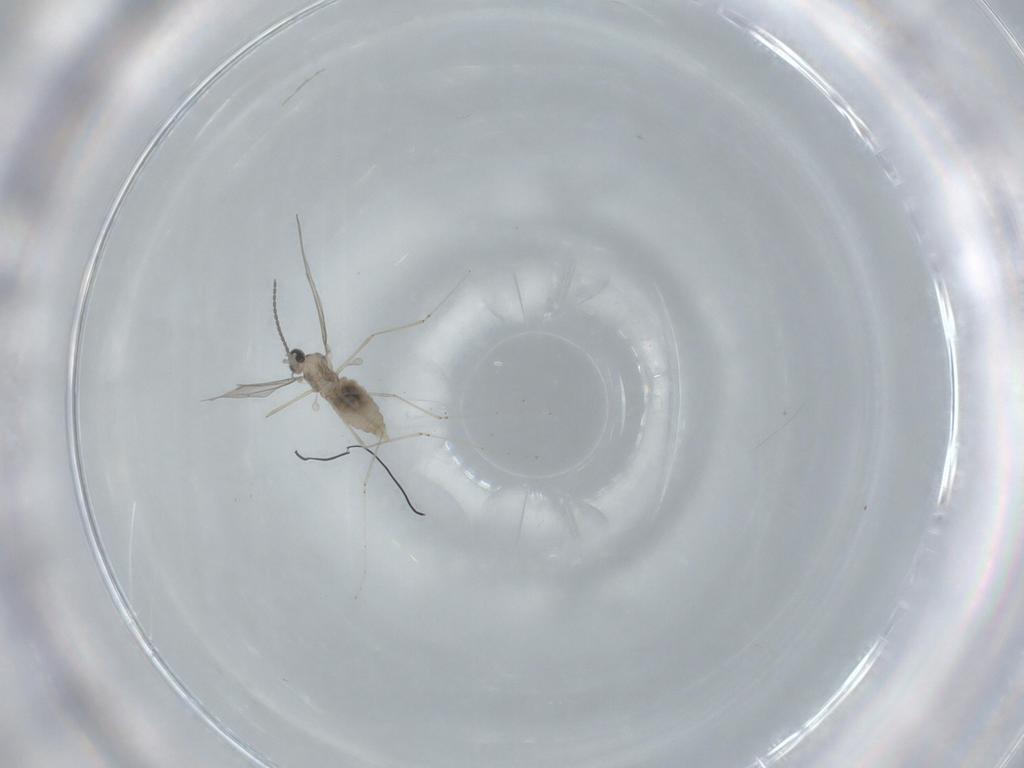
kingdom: Animalia
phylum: Arthropoda
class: Insecta
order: Diptera
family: Cecidomyiidae
